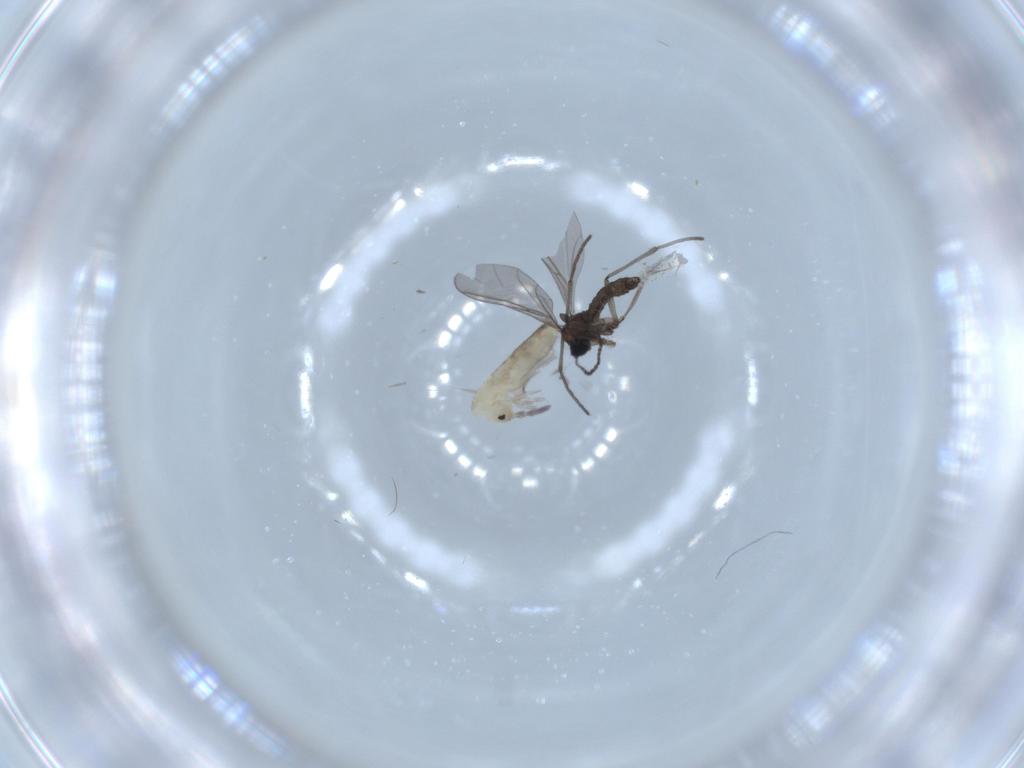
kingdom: Animalia
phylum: Arthropoda
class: Insecta
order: Diptera
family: Sciaridae
